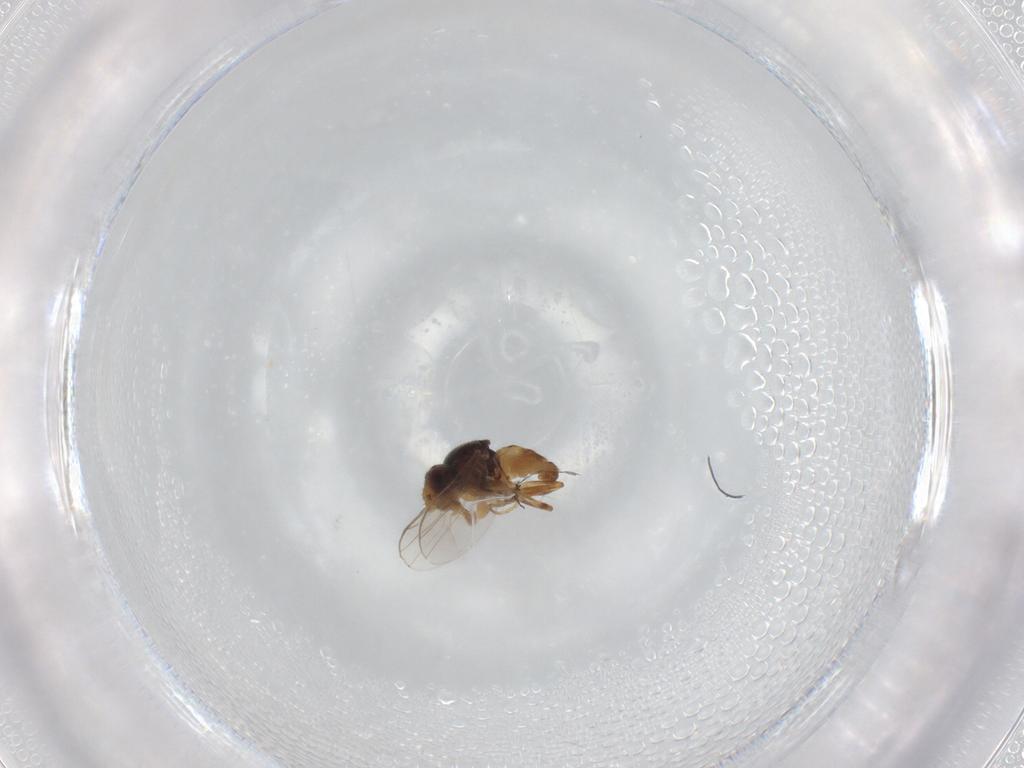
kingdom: Animalia
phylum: Arthropoda
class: Insecta
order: Diptera
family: Chloropidae
